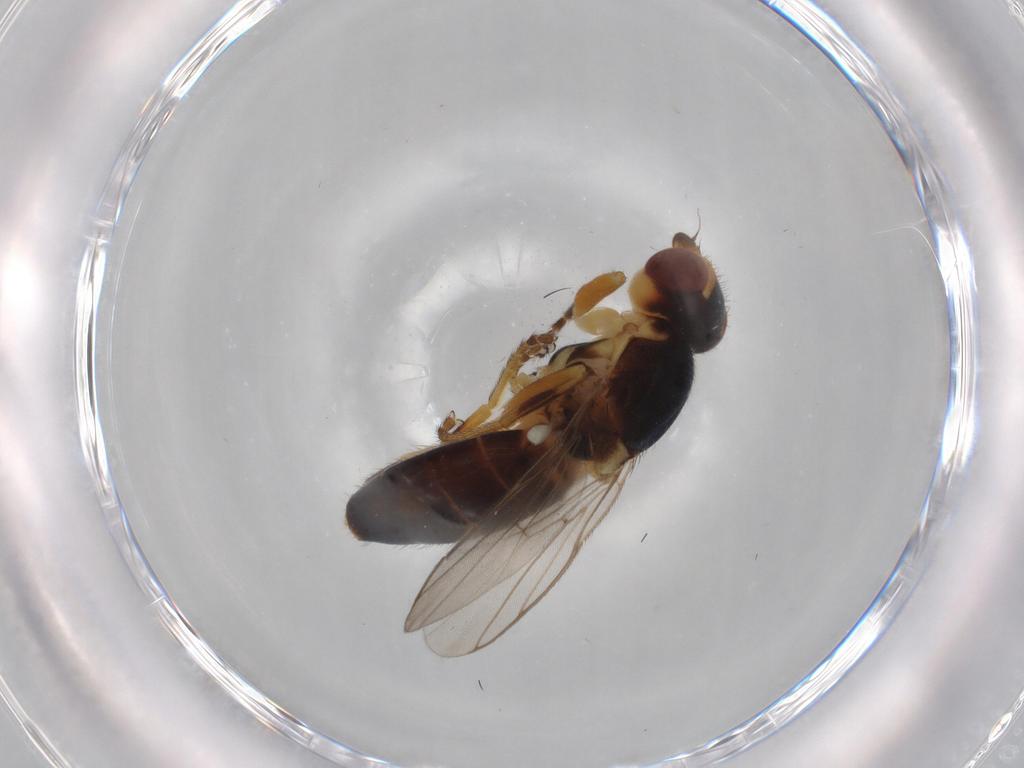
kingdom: Animalia
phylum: Arthropoda
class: Insecta
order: Diptera
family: Chloropidae
